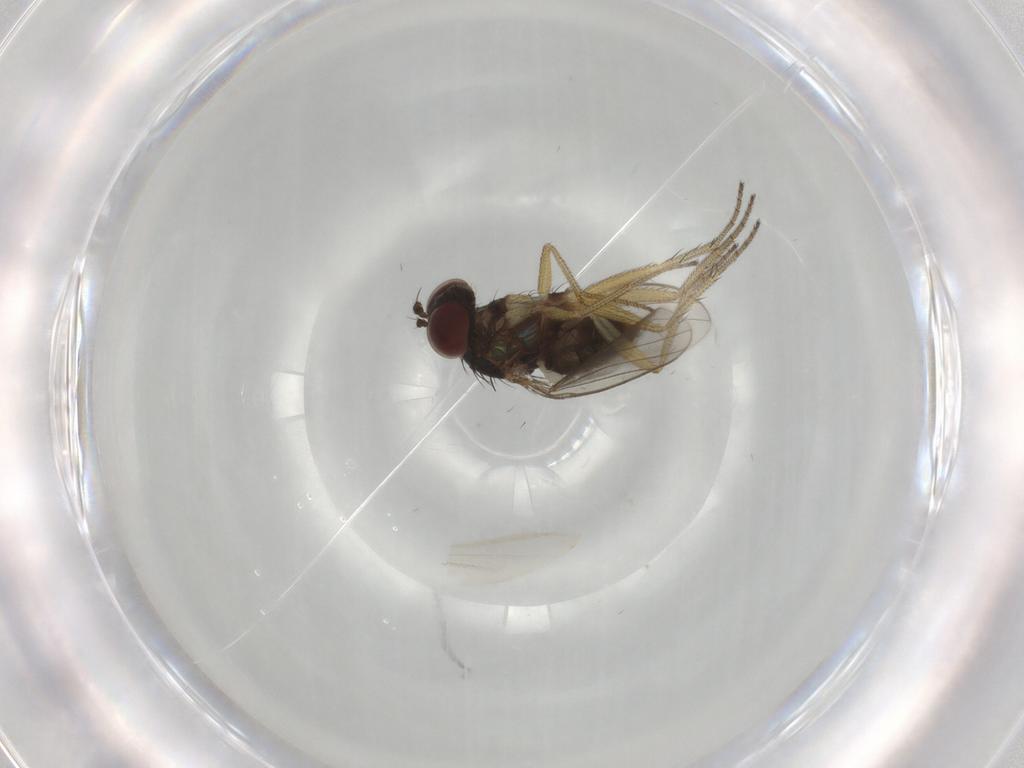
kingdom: Animalia
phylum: Arthropoda
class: Insecta
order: Diptera
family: Dolichopodidae
